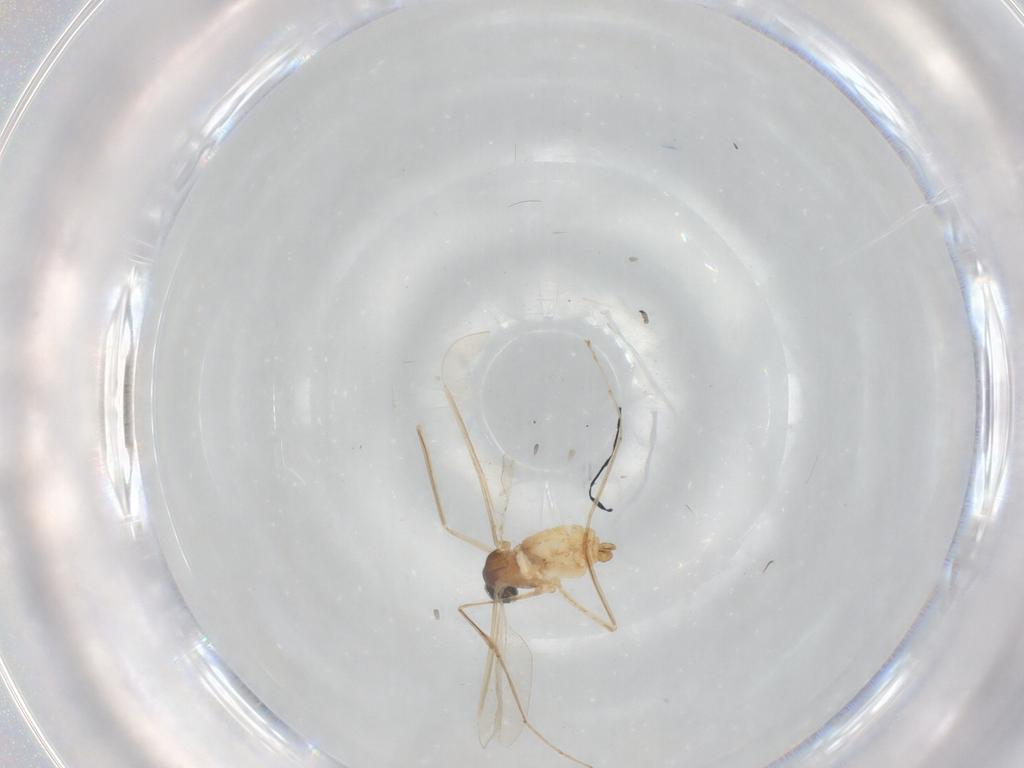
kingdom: Animalia
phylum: Arthropoda
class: Insecta
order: Diptera
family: Cecidomyiidae
